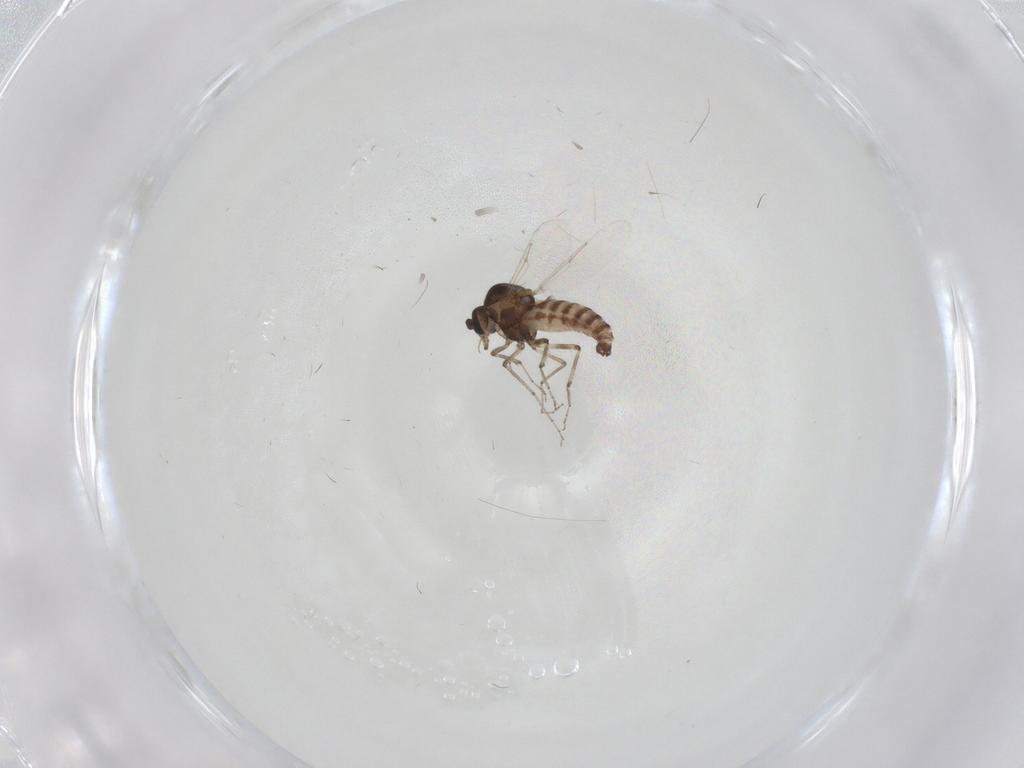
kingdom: Animalia
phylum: Arthropoda
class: Insecta
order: Diptera
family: Ceratopogonidae
